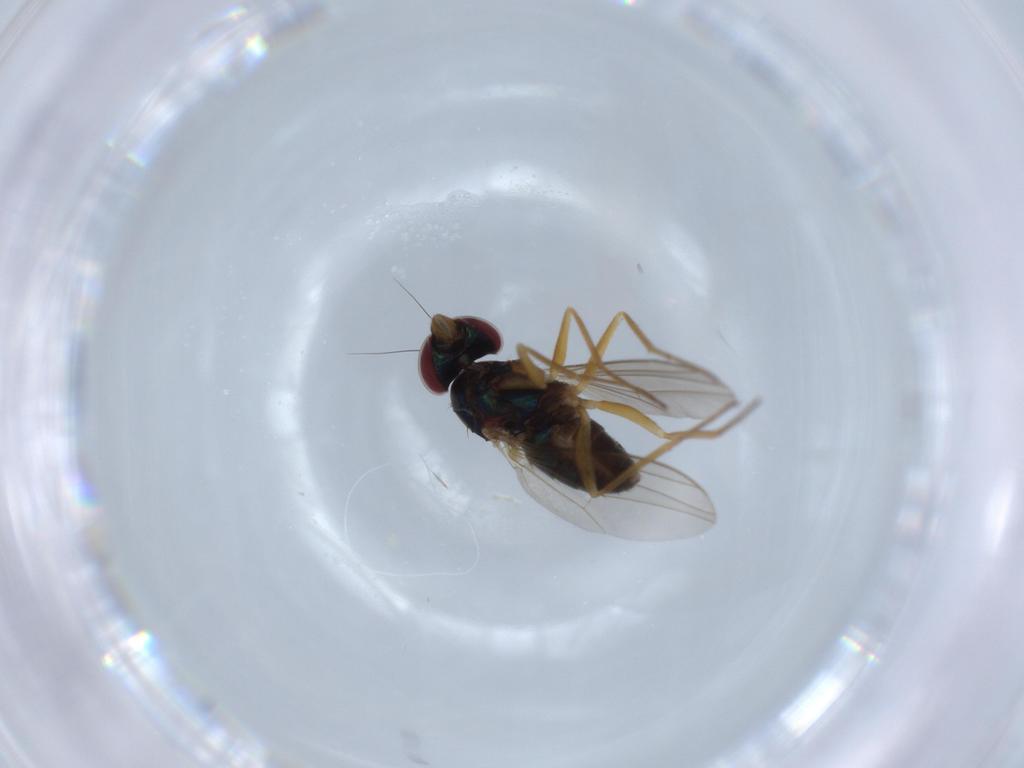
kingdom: Animalia
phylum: Arthropoda
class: Insecta
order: Diptera
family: Dolichopodidae
